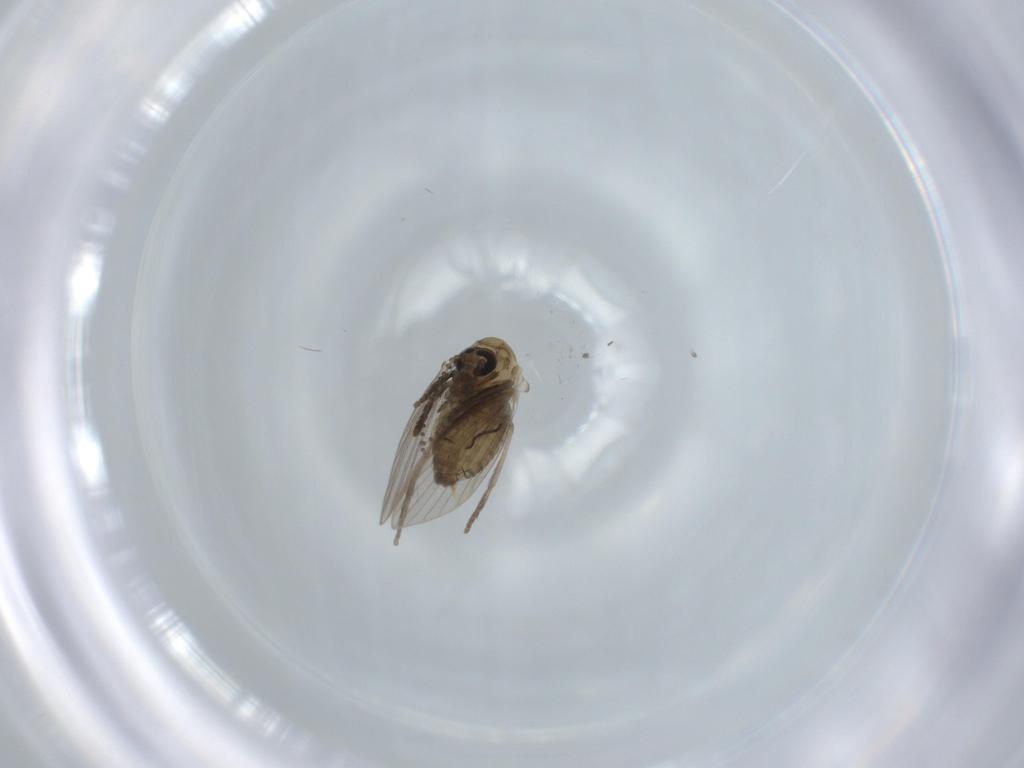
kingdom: Animalia
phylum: Arthropoda
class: Insecta
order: Diptera
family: Psychodidae
